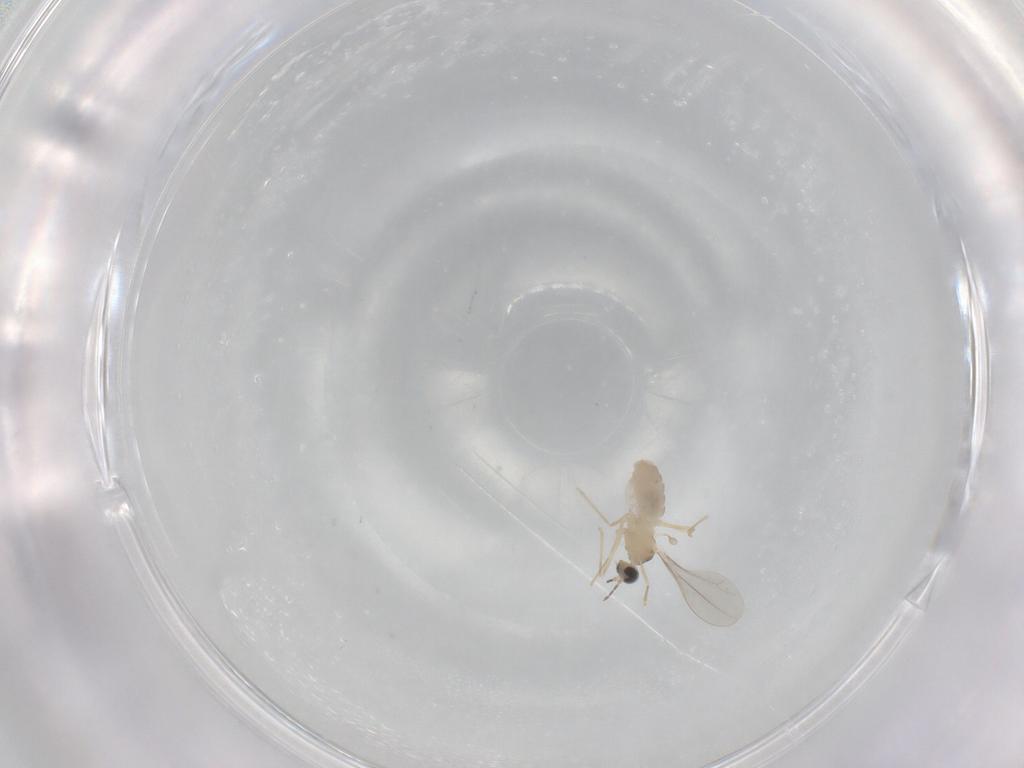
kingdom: Animalia
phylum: Arthropoda
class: Insecta
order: Diptera
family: Cecidomyiidae
